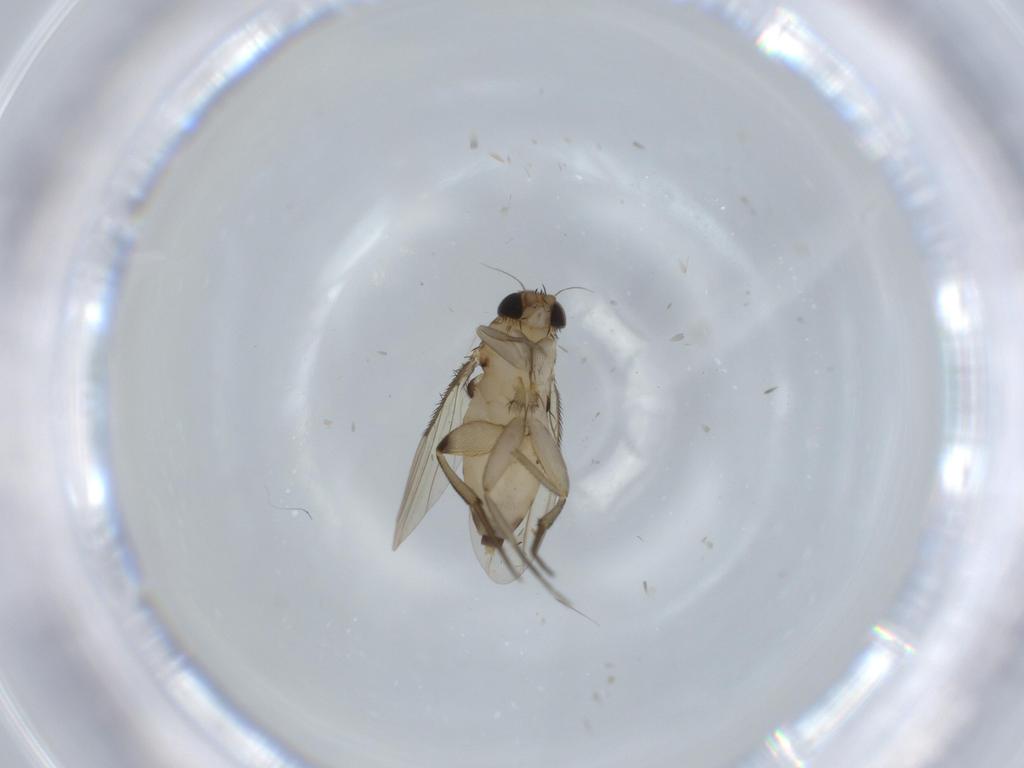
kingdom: Animalia
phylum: Arthropoda
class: Insecta
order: Diptera
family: Phoridae
